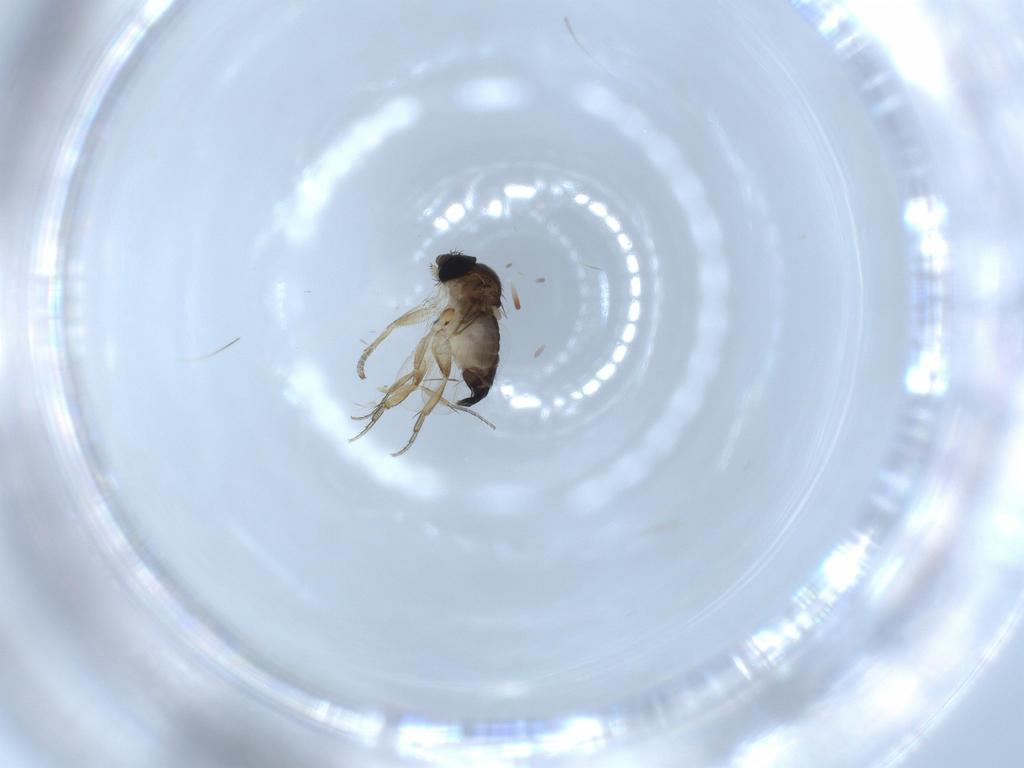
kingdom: Animalia
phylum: Arthropoda
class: Insecta
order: Diptera
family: Phoridae
